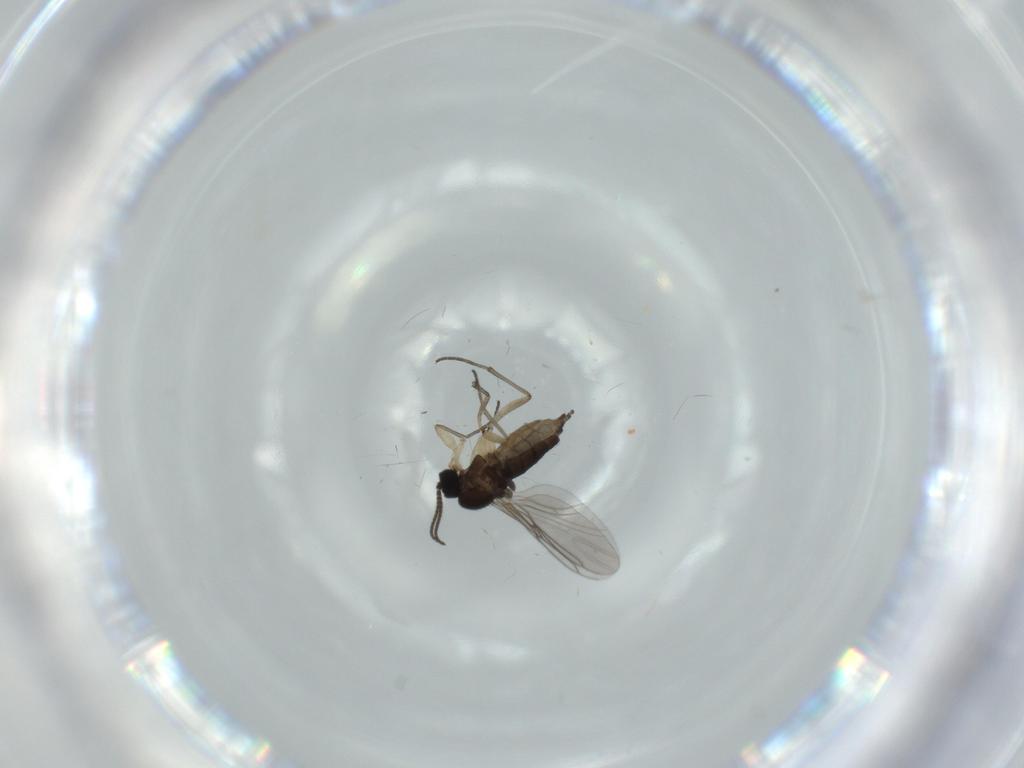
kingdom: Animalia
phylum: Arthropoda
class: Insecta
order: Diptera
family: Sciaridae
